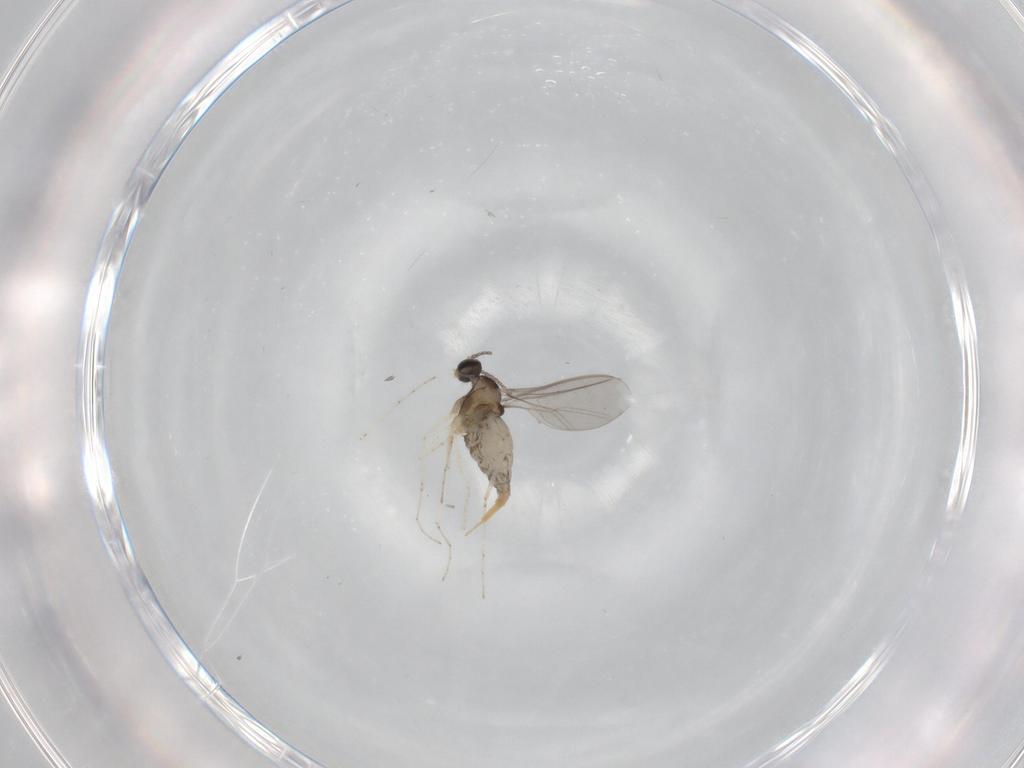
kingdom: Animalia
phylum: Arthropoda
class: Insecta
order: Diptera
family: Cecidomyiidae
